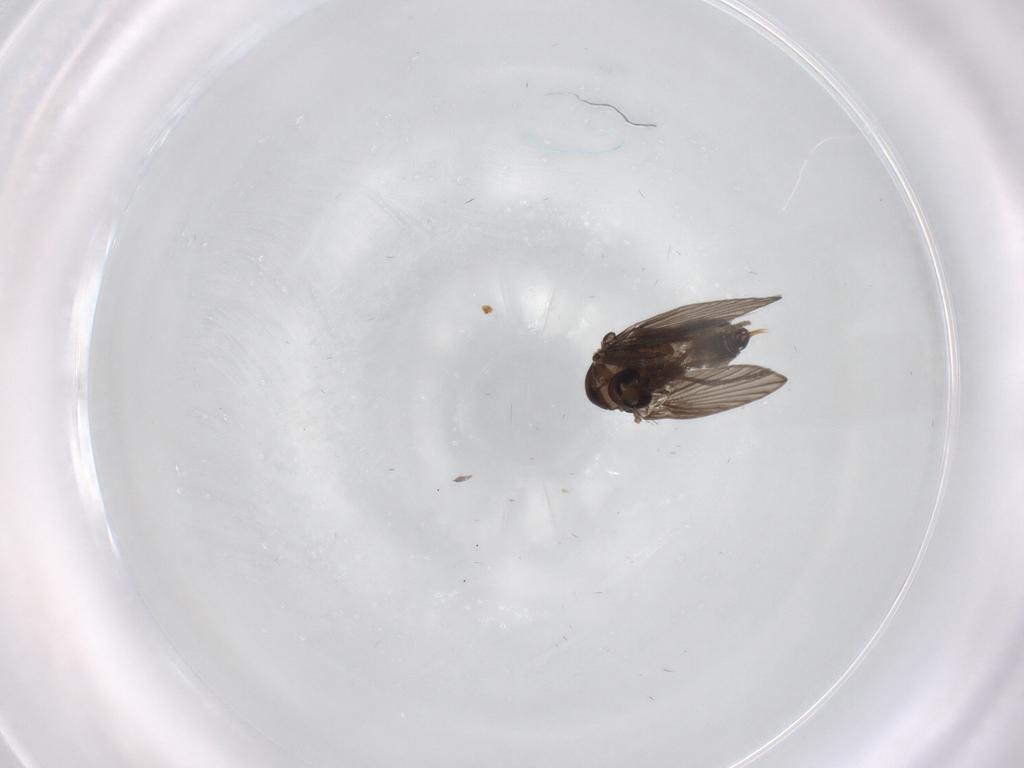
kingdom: Animalia
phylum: Arthropoda
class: Insecta
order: Diptera
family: Psychodidae
